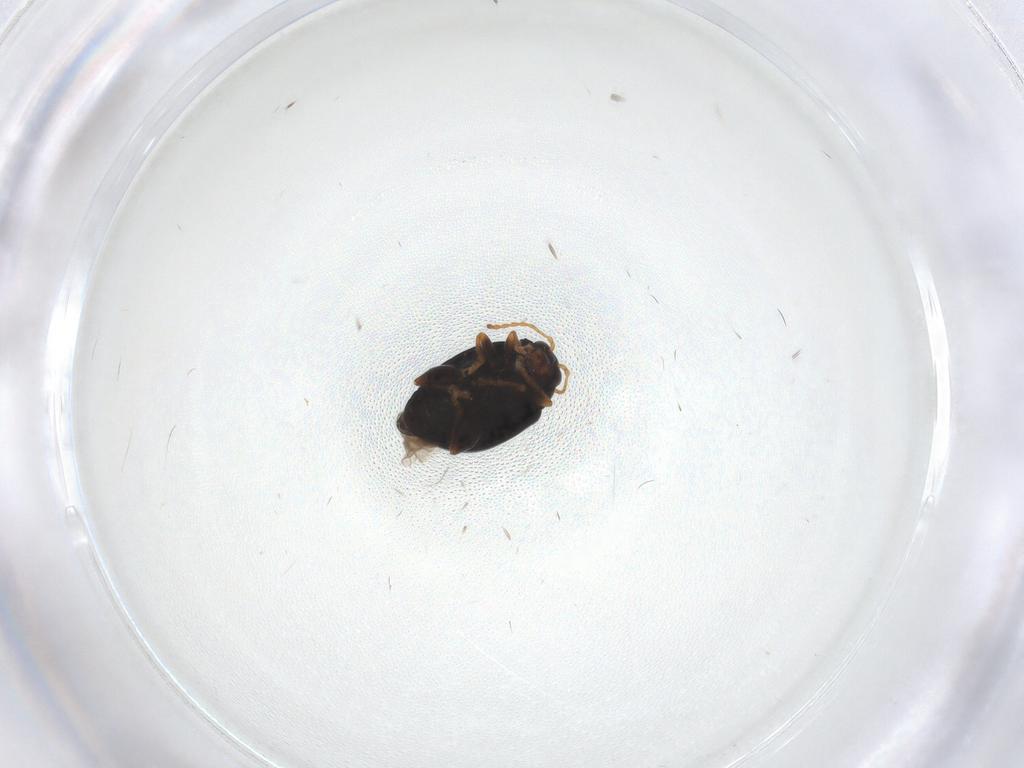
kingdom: Animalia
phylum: Arthropoda
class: Insecta
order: Coleoptera
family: Chrysomelidae
